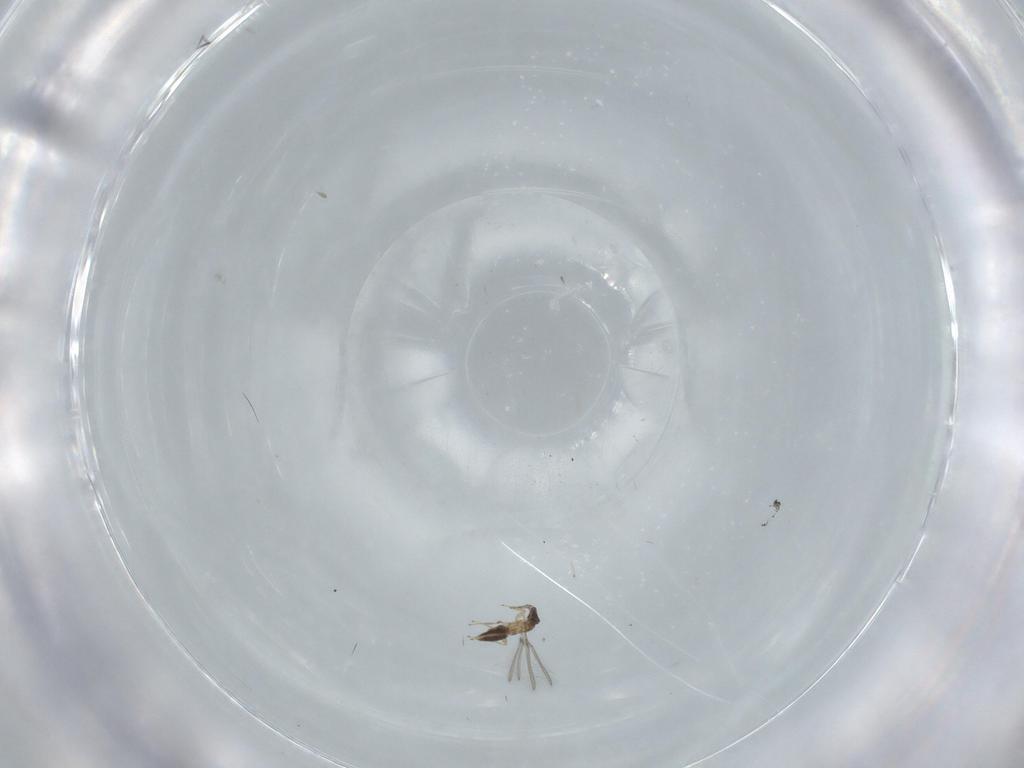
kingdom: Animalia
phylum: Arthropoda
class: Insecta
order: Hymenoptera
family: Mymaridae
